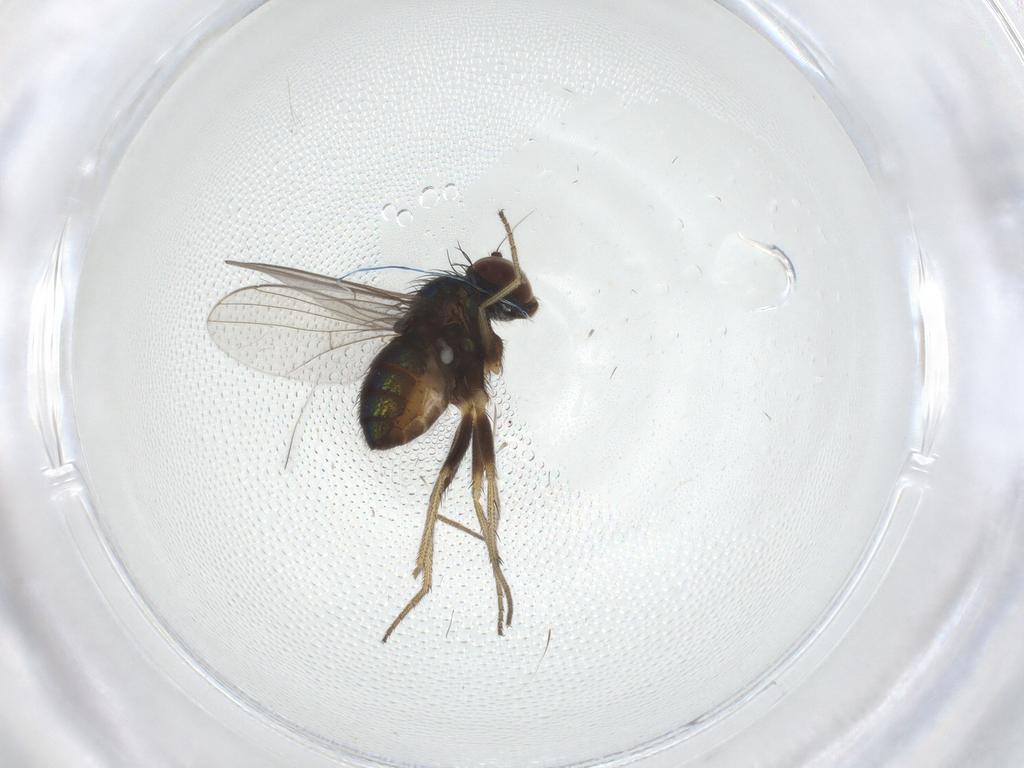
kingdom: Animalia
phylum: Arthropoda
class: Insecta
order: Diptera
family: Dolichopodidae
